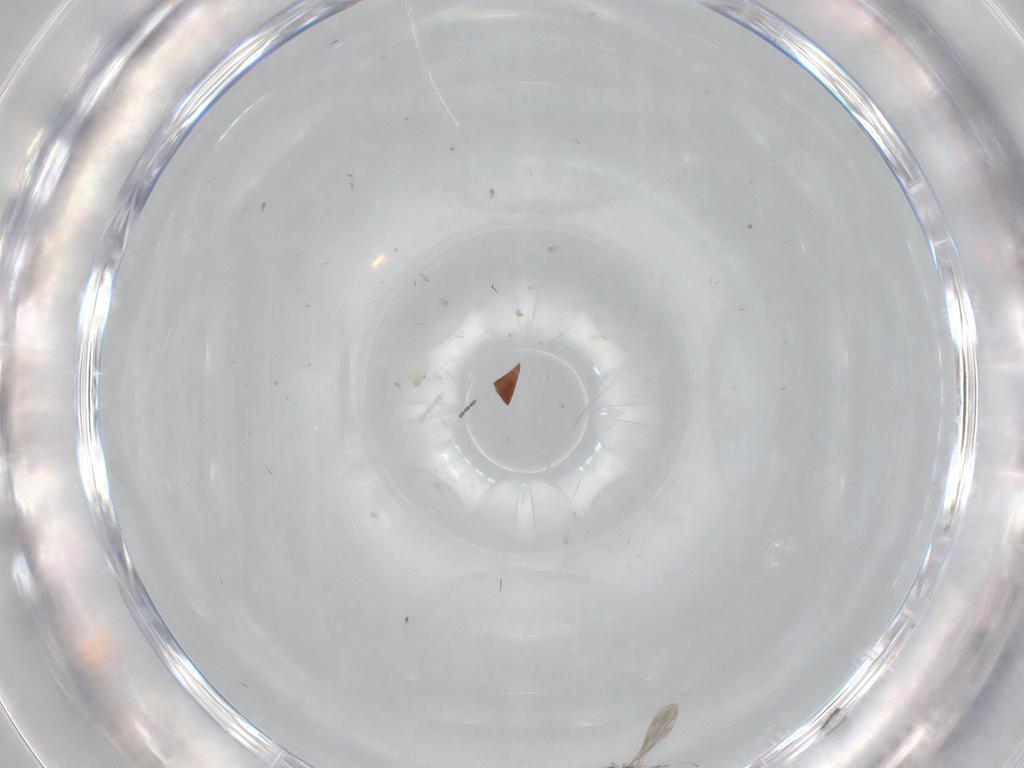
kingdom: Animalia
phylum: Arthropoda
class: Insecta
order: Diptera
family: Cecidomyiidae
